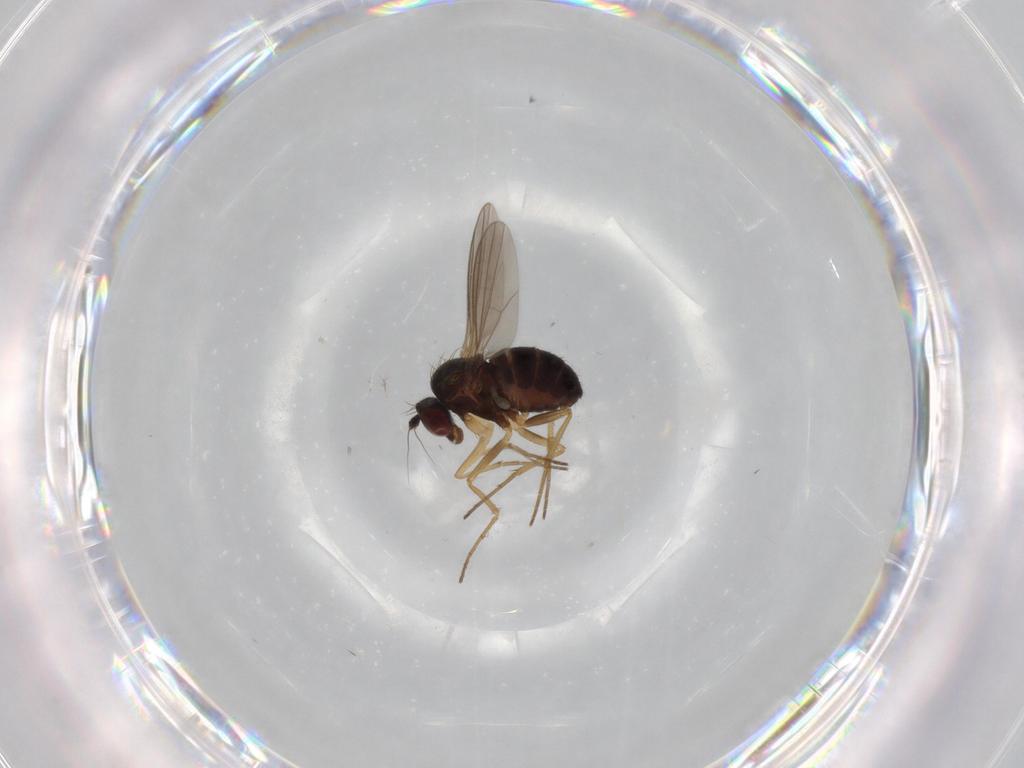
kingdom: Animalia
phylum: Arthropoda
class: Insecta
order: Diptera
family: Dolichopodidae
